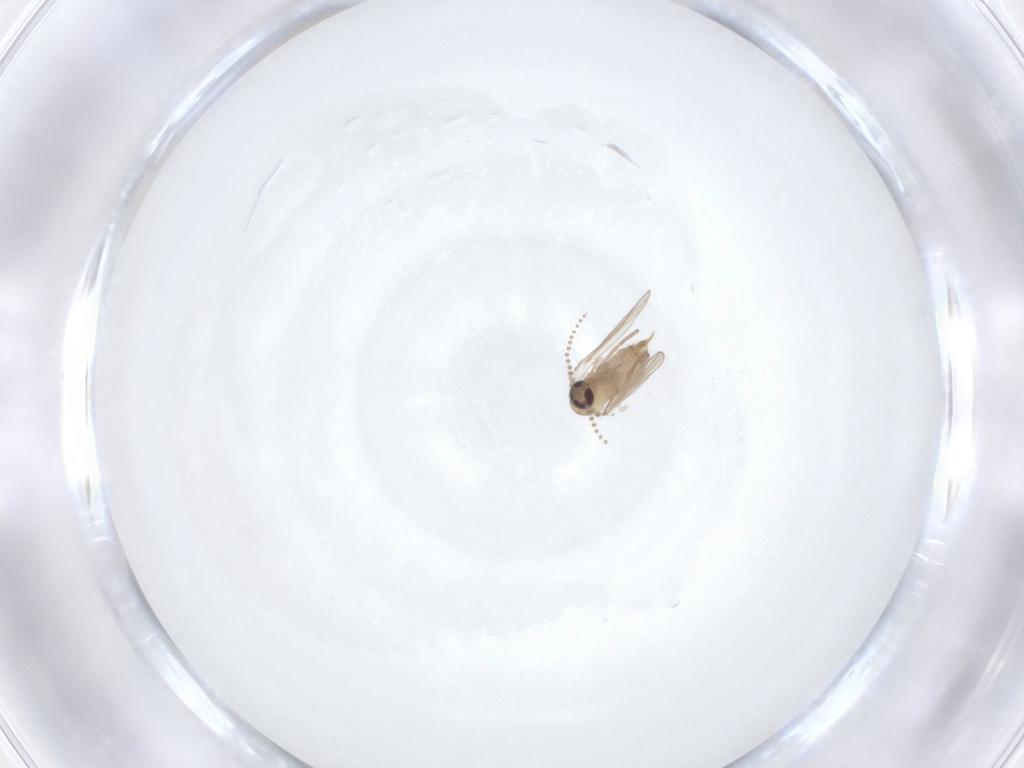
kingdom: Animalia
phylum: Arthropoda
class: Insecta
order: Diptera
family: Psychodidae
